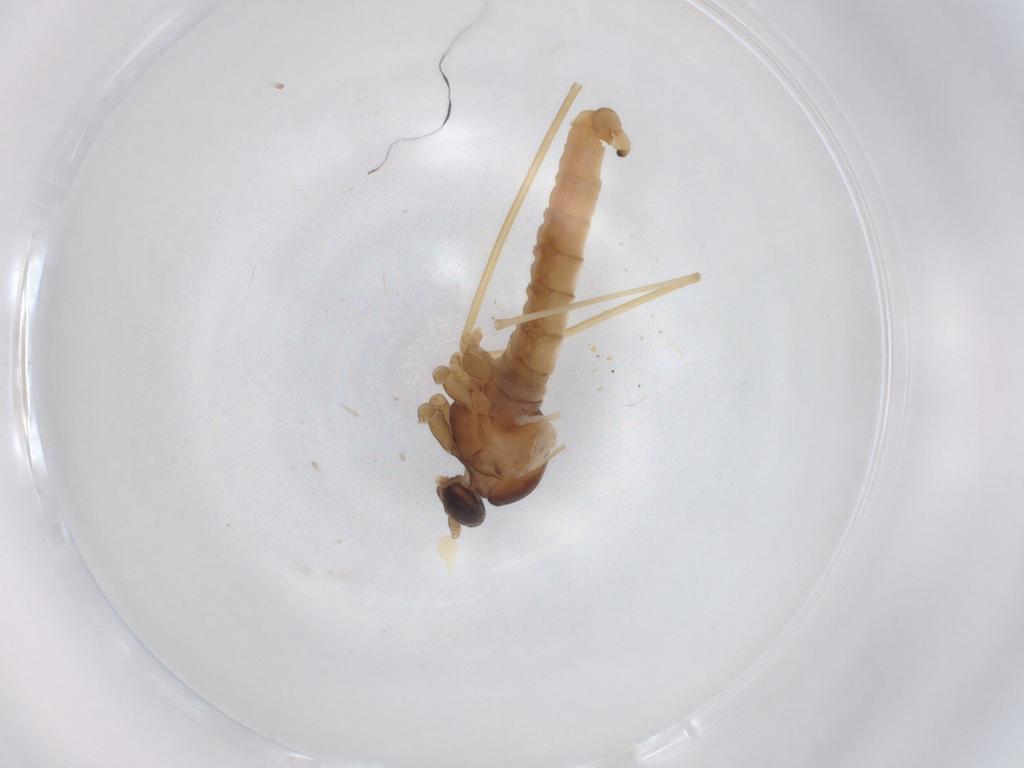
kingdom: Animalia
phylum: Arthropoda
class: Insecta
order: Diptera
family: Cecidomyiidae
